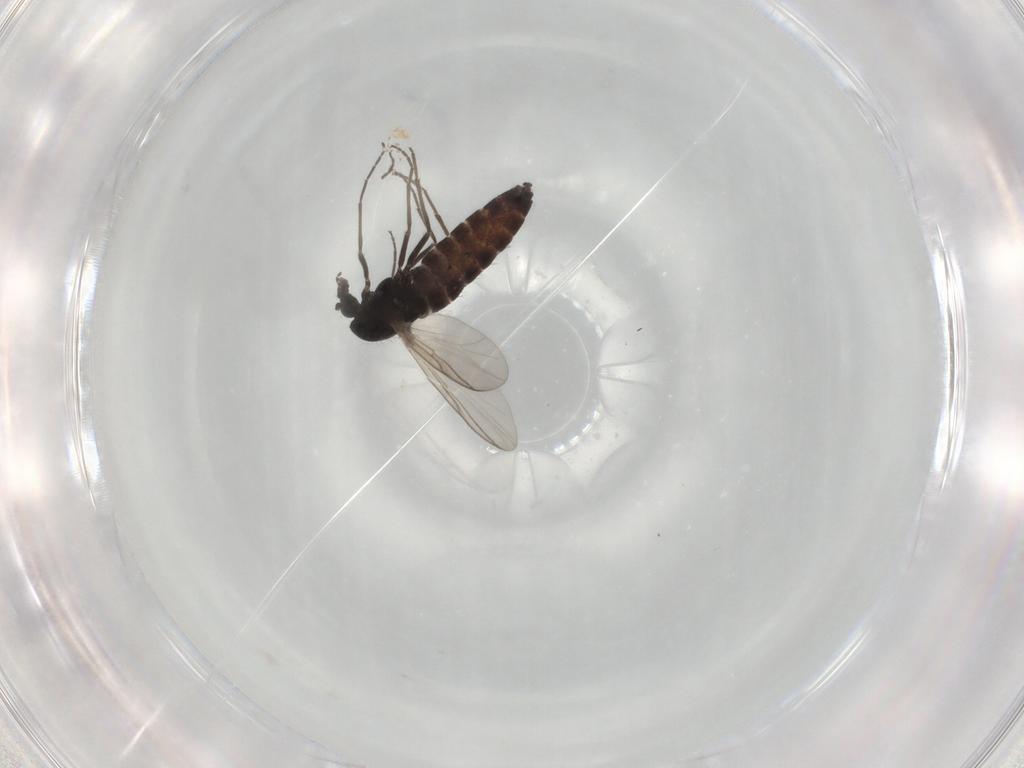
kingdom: Animalia
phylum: Arthropoda
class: Insecta
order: Diptera
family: Chironomidae
